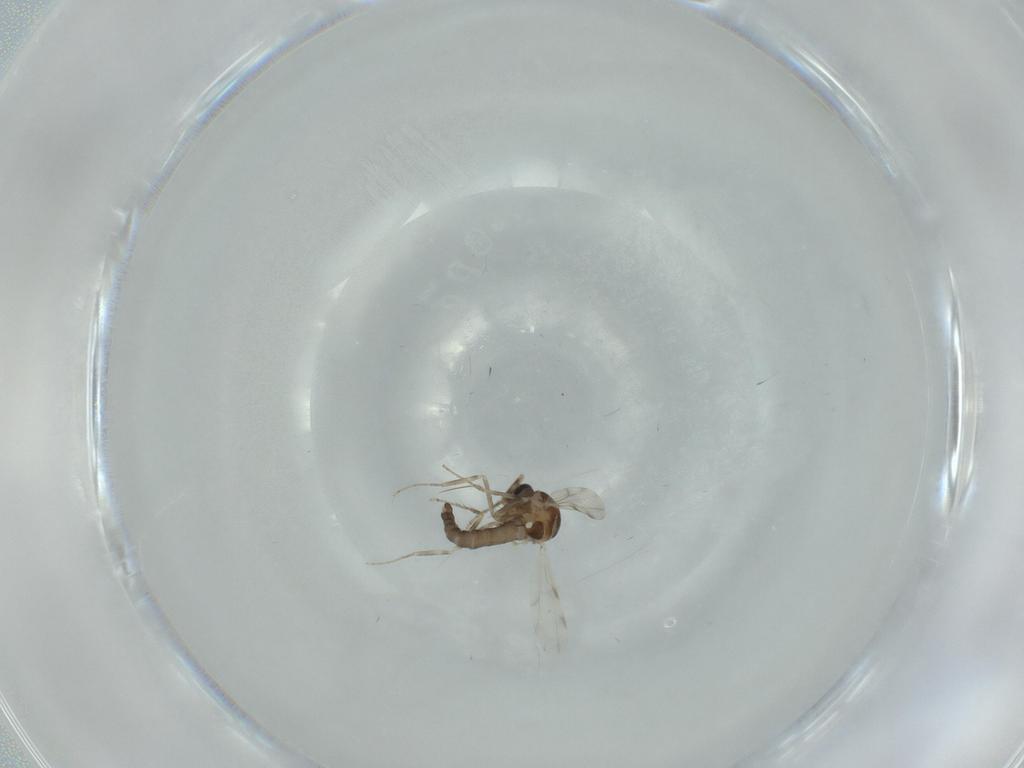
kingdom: Animalia
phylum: Arthropoda
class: Insecta
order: Diptera
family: Ceratopogonidae
